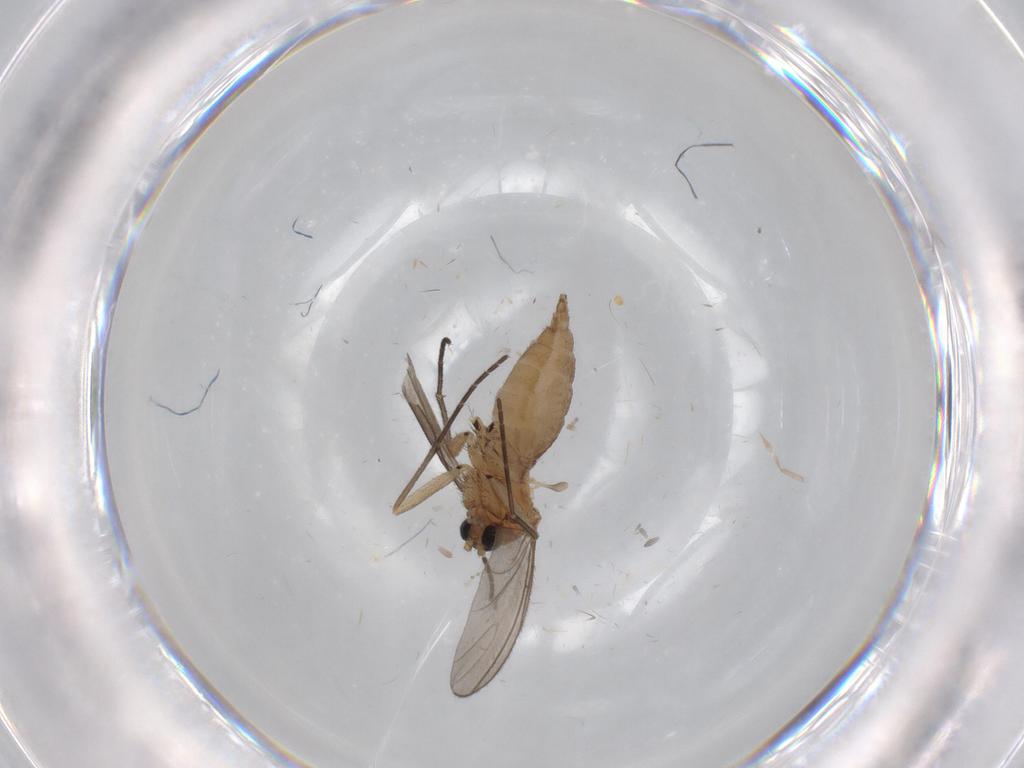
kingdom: Animalia
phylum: Arthropoda
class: Insecta
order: Diptera
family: Sciaridae
